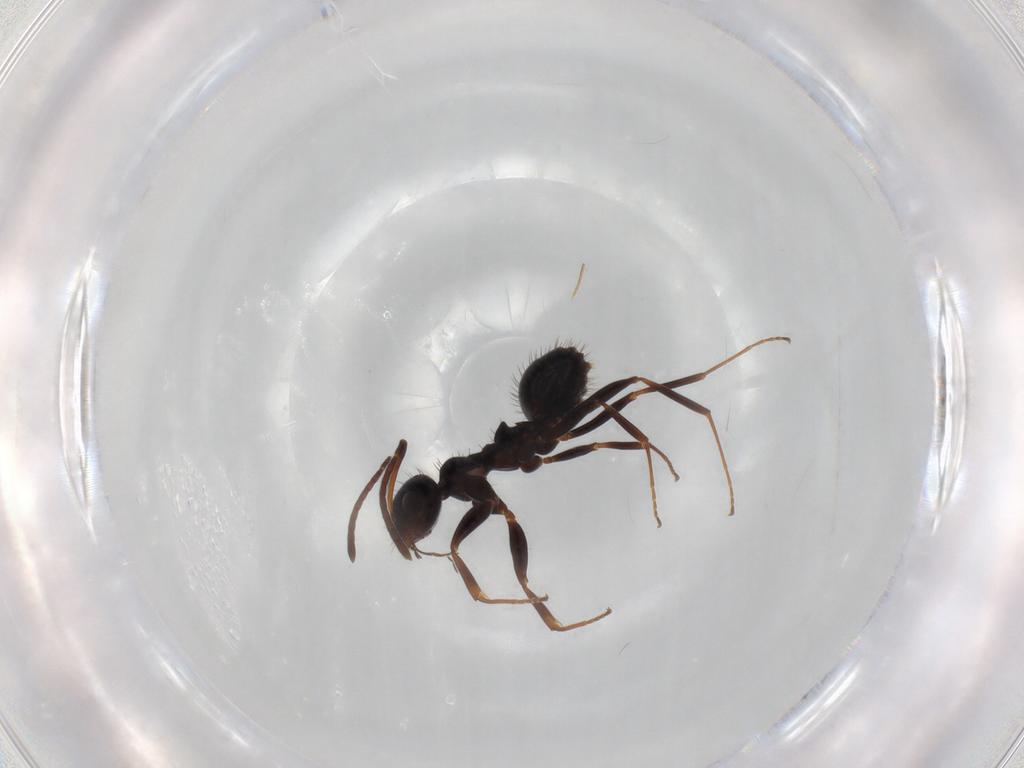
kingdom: Animalia
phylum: Arthropoda
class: Insecta
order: Hymenoptera
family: Formicidae
